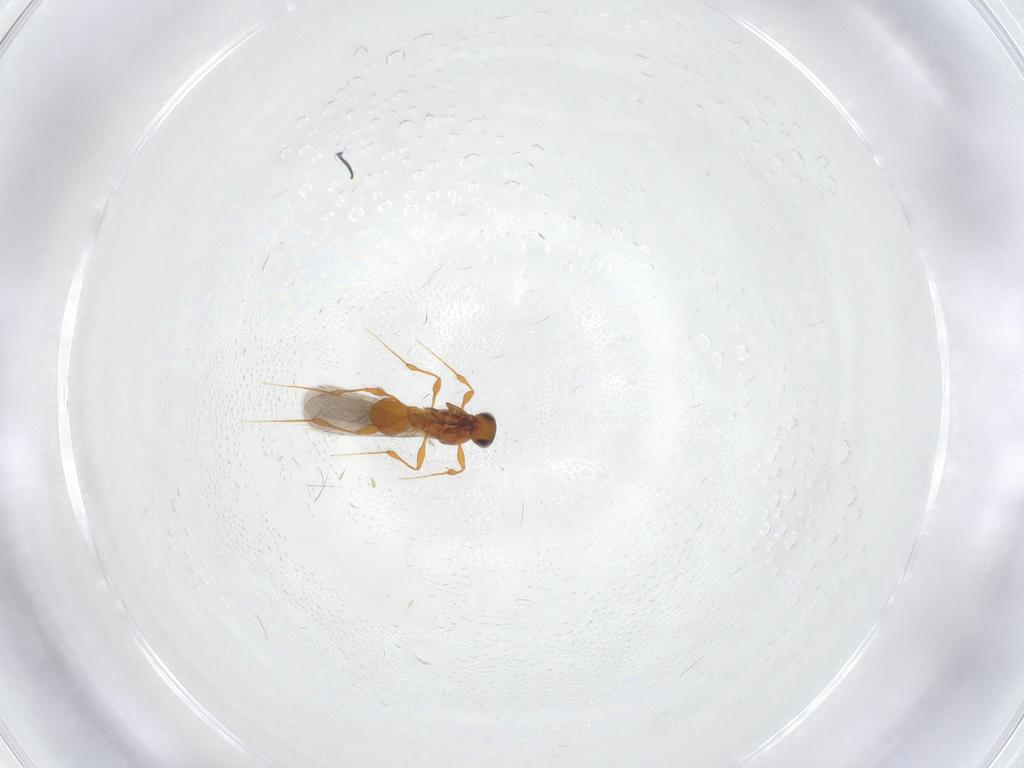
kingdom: Animalia
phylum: Arthropoda
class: Insecta
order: Hymenoptera
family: Platygastridae
